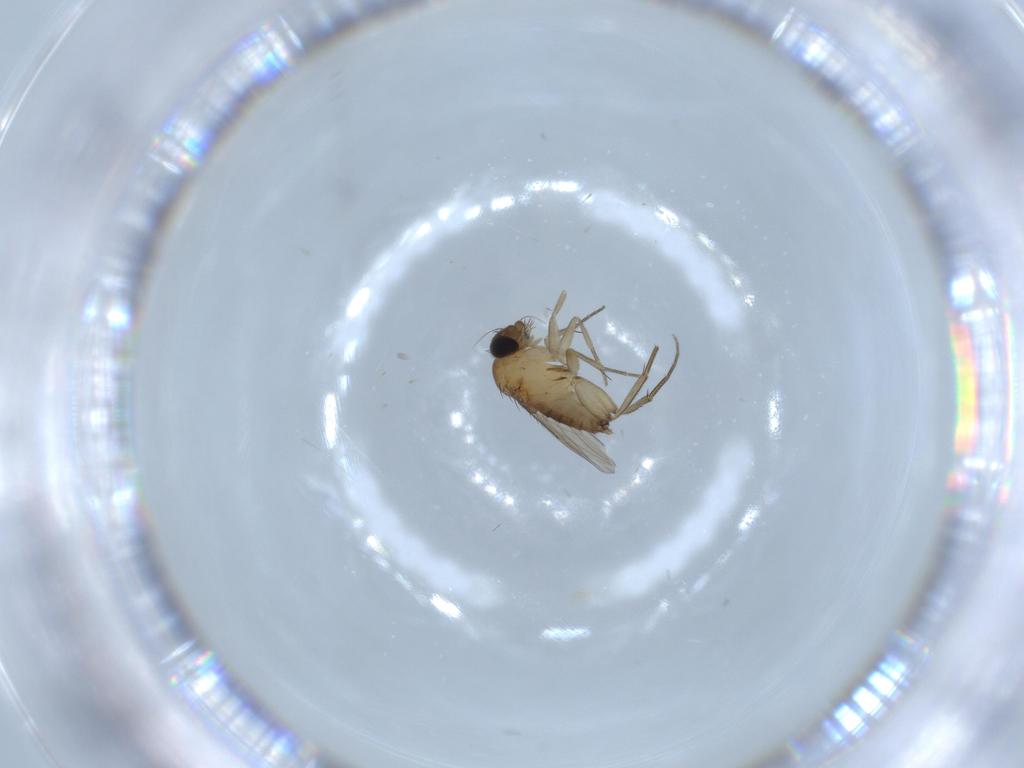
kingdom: Animalia
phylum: Arthropoda
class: Insecta
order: Diptera
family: Phoridae
